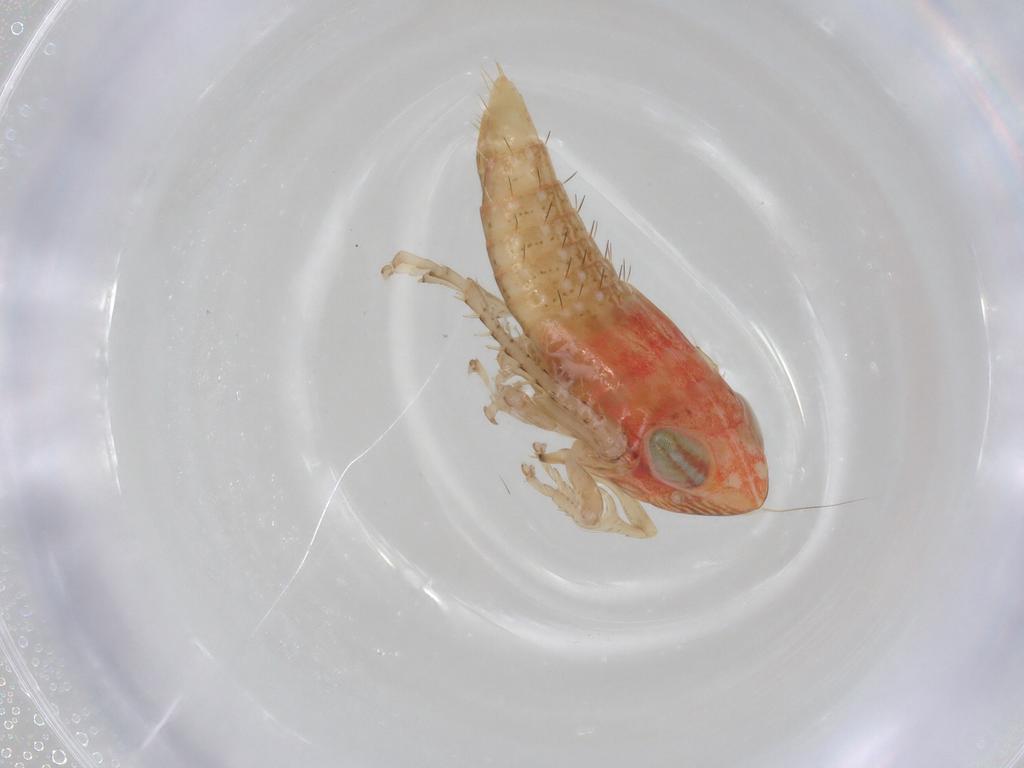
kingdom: Animalia
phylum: Arthropoda
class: Insecta
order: Hemiptera
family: Cicadellidae
